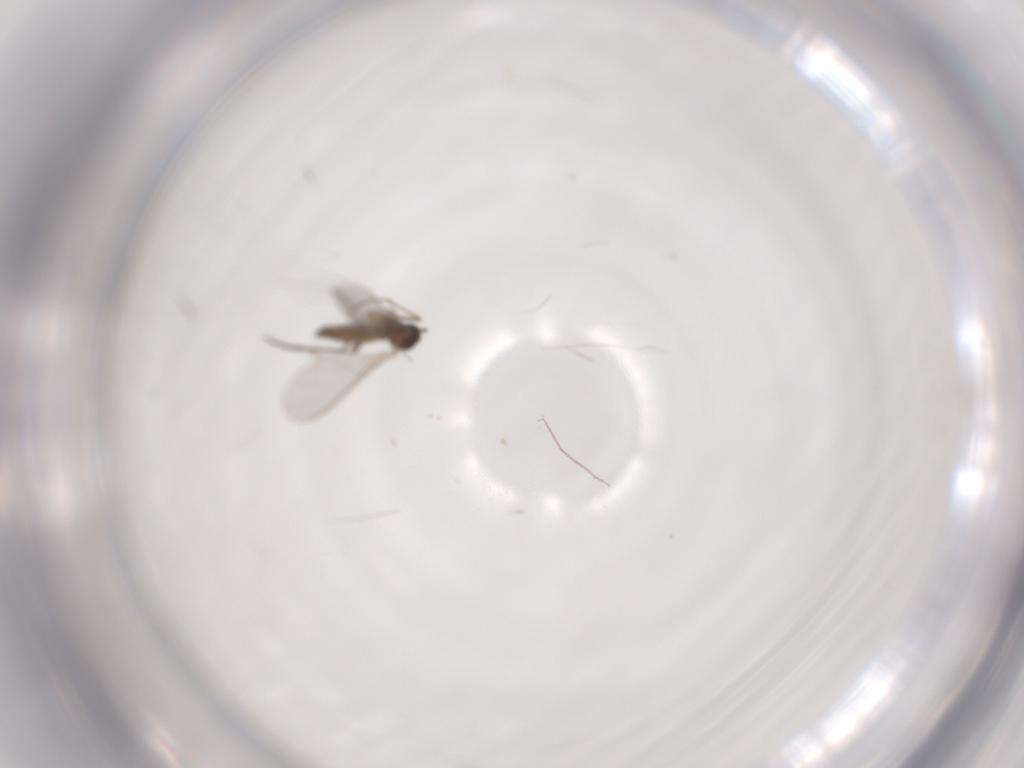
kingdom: Animalia
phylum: Arthropoda
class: Insecta
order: Diptera
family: Sciaridae
